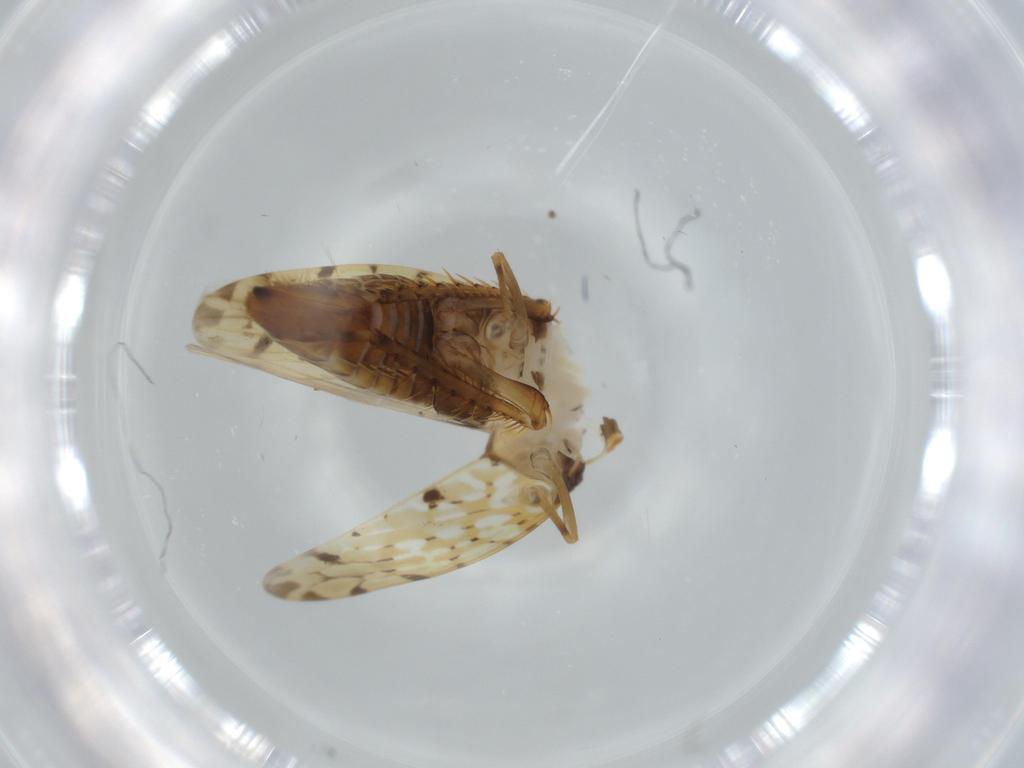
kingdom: Animalia
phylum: Arthropoda
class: Insecta
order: Hemiptera
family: Cicadellidae
